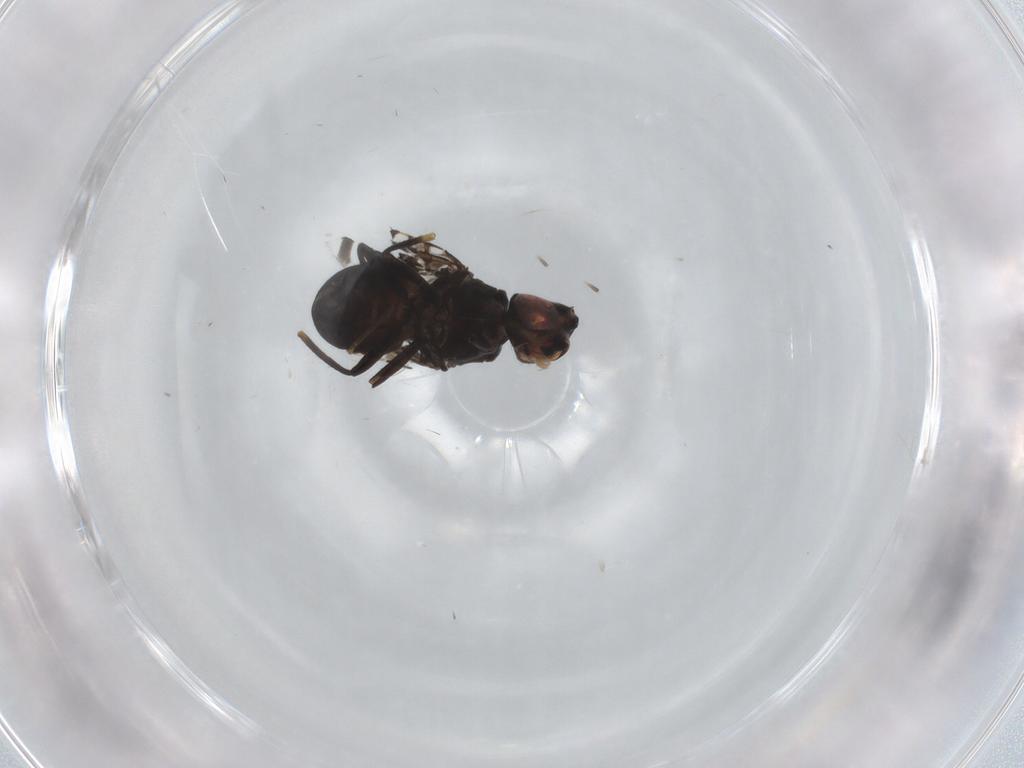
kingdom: Animalia
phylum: Arthropoda
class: Insecta
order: Diptera
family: Tephritidae
